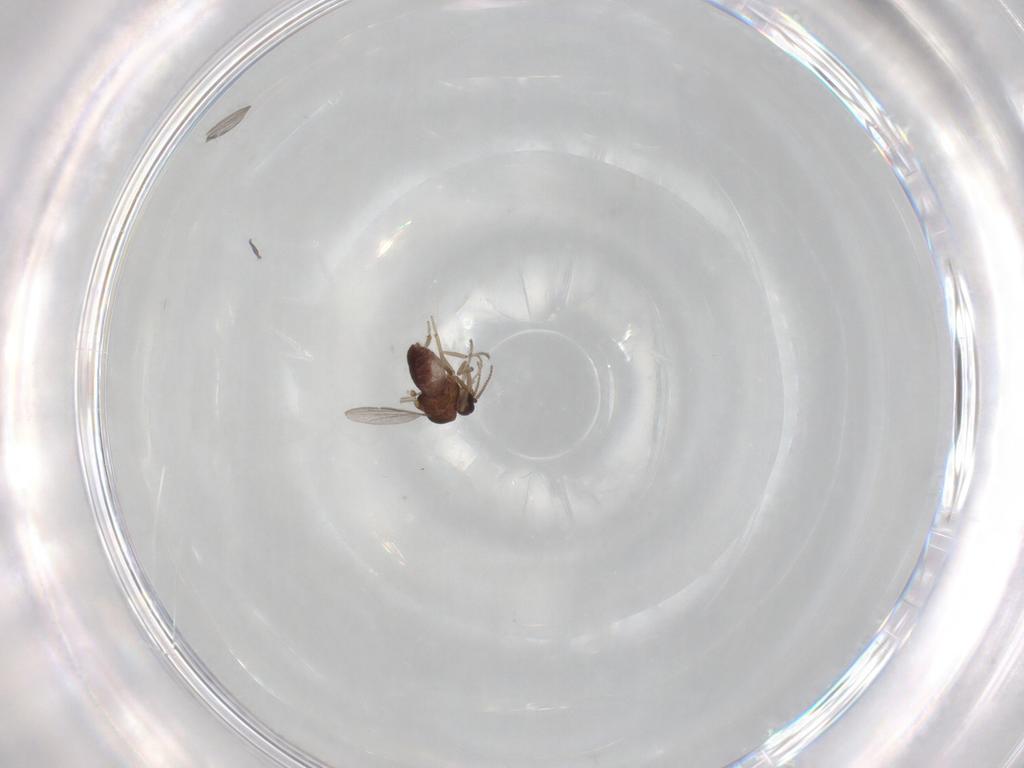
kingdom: Animalia
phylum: Arthropoda
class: Insecta
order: Diptera
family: Ceratopogonidae
